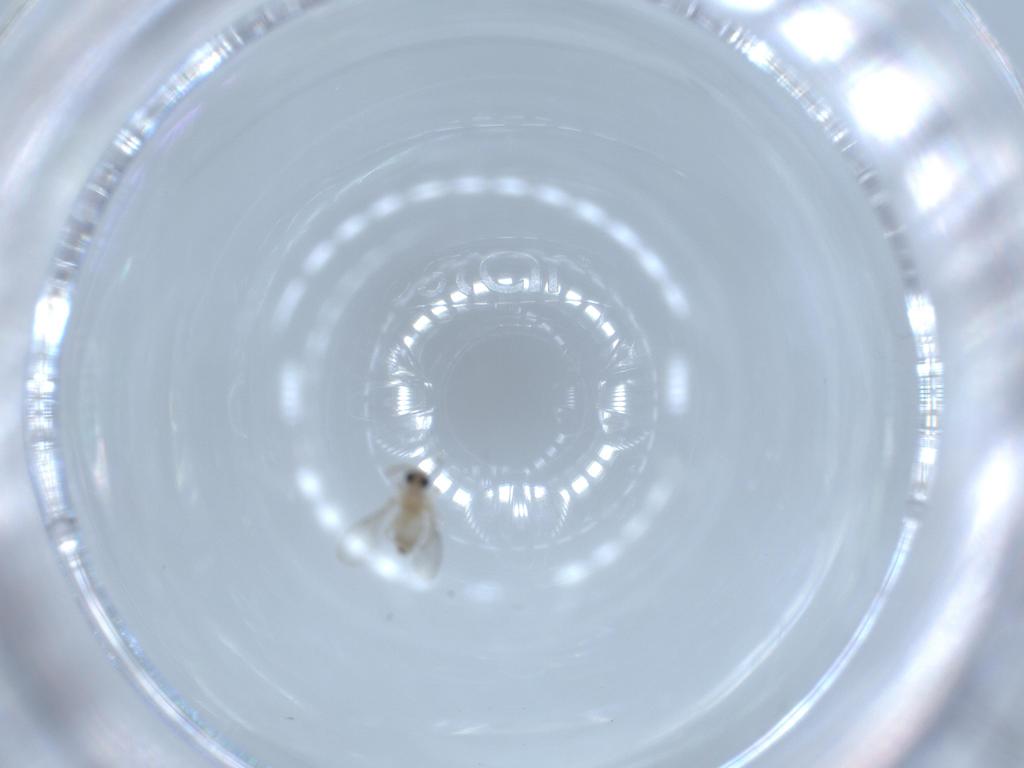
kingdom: Animalia
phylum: Arthropoda
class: Insecta
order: Diptera
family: Cecidomyiidae
